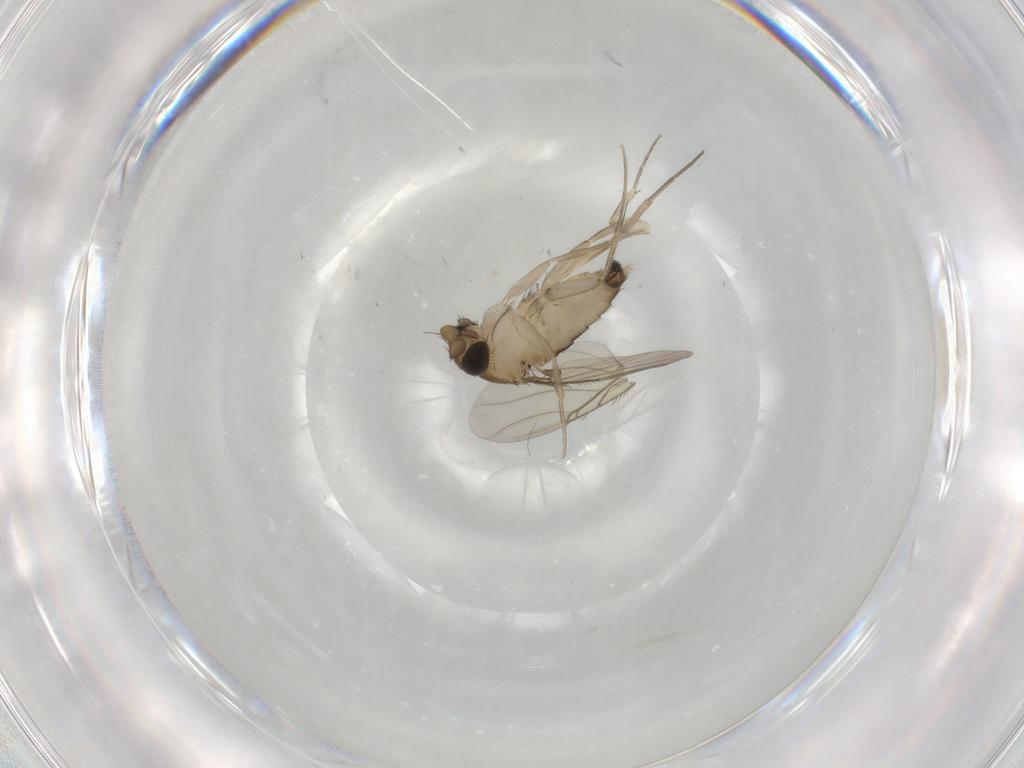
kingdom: Animalia
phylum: Arthropoda
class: Insecta
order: Diptera
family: Phoridae
